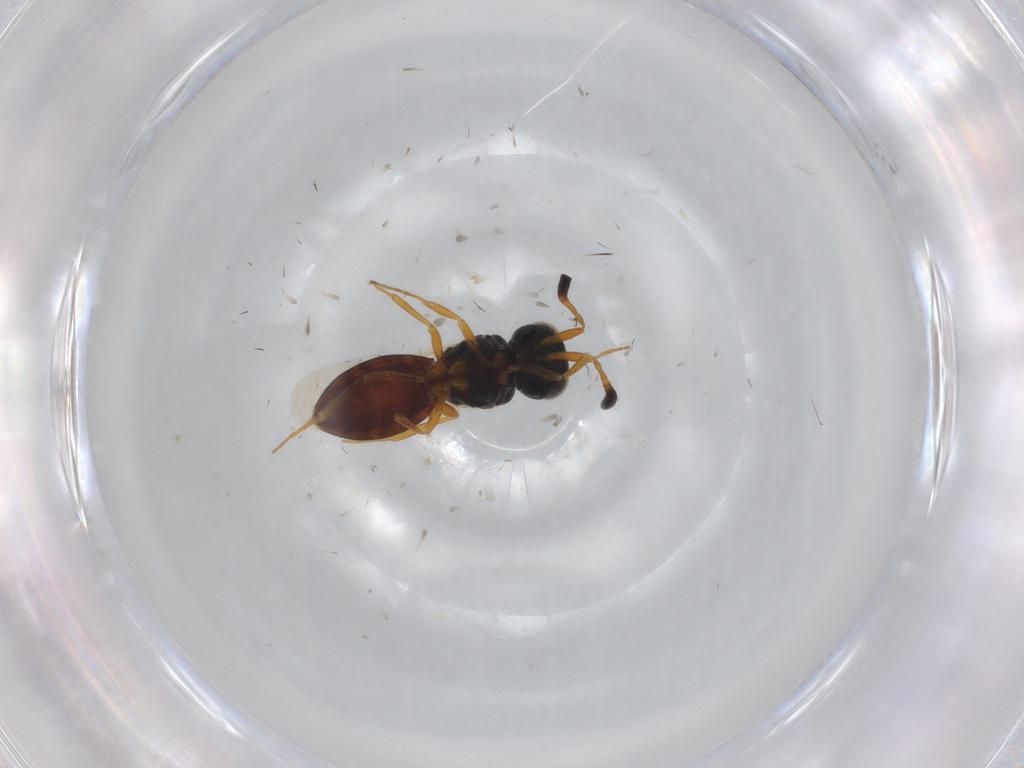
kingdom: Animalia
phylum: Arthropoda
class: Insecta
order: Hymenoptera
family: Scelionidae
